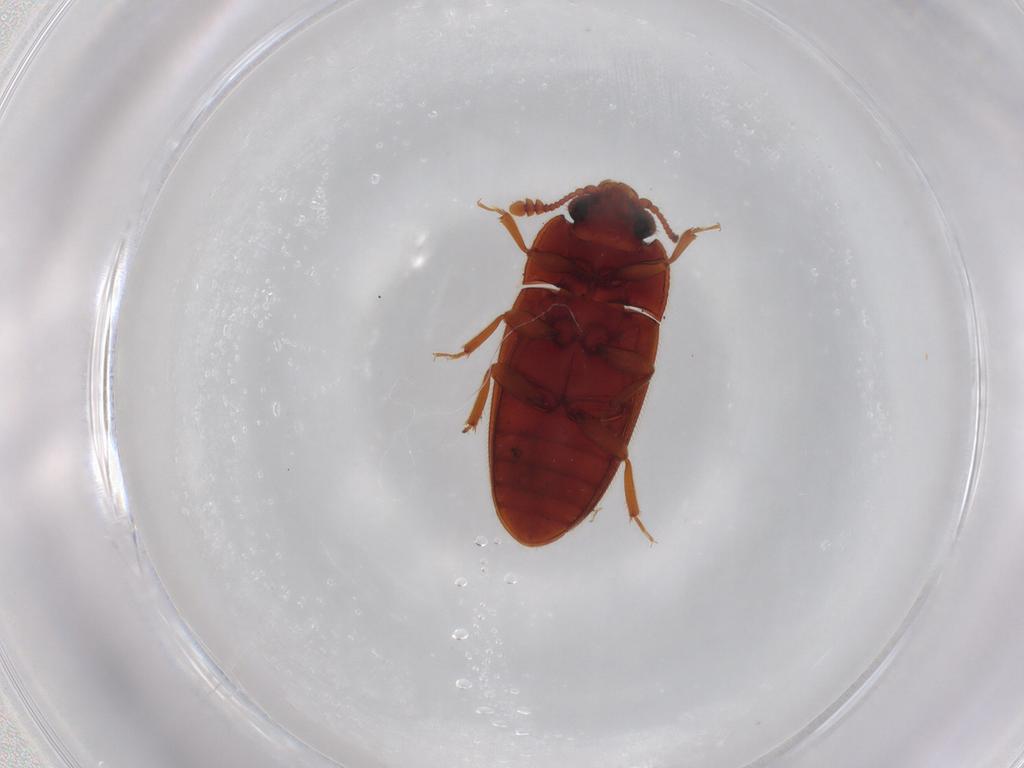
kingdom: Animalia
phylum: Arthropoda
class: Insecta
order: Coleoptera
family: Biphyllidae
